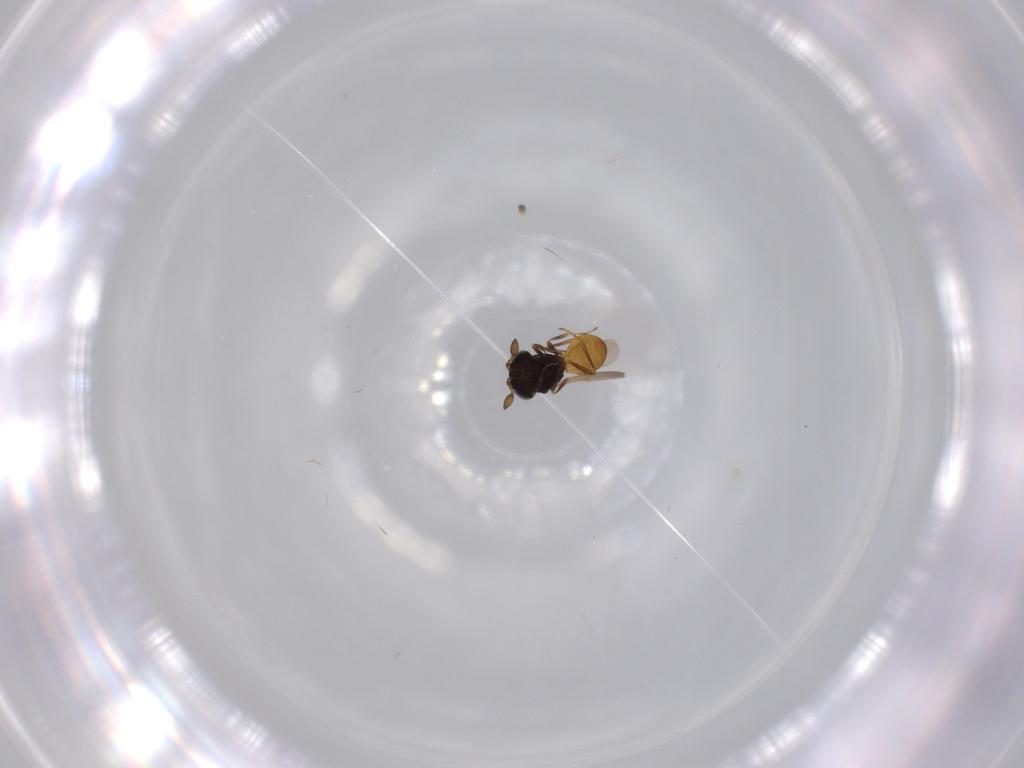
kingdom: Animalia
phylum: Arthropoda
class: Insecta
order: Hymenoptera
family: Scelionidae
